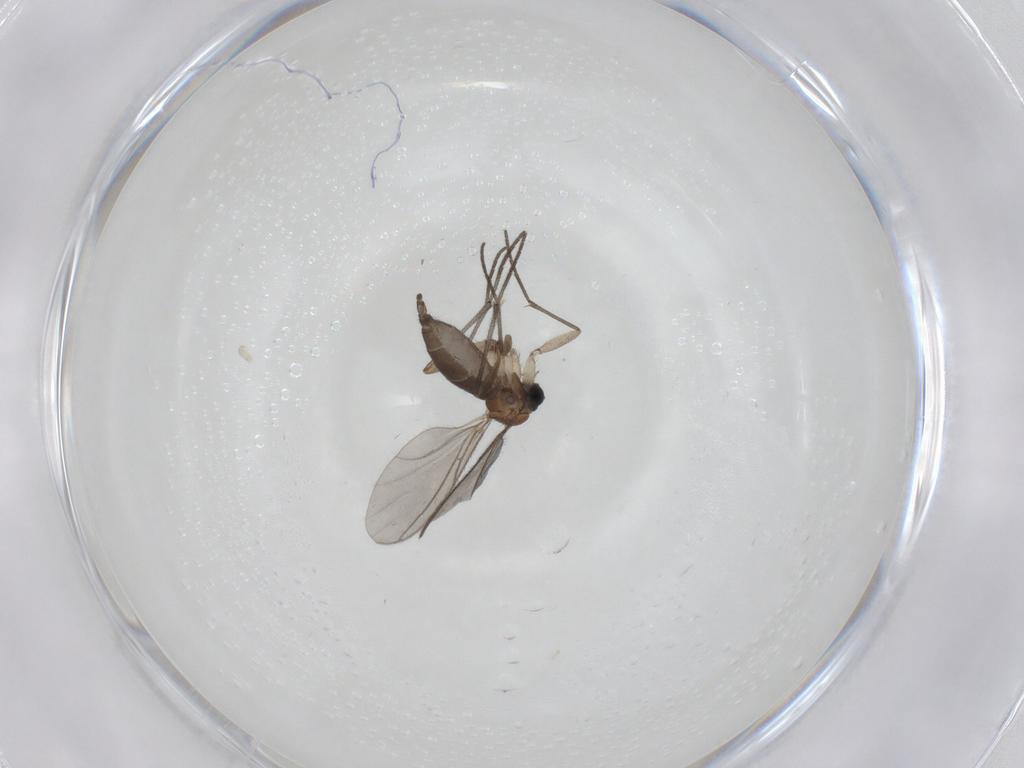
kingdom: Animalia
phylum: Arthropoda
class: Insecta
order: Diptera
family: Sciaridae
